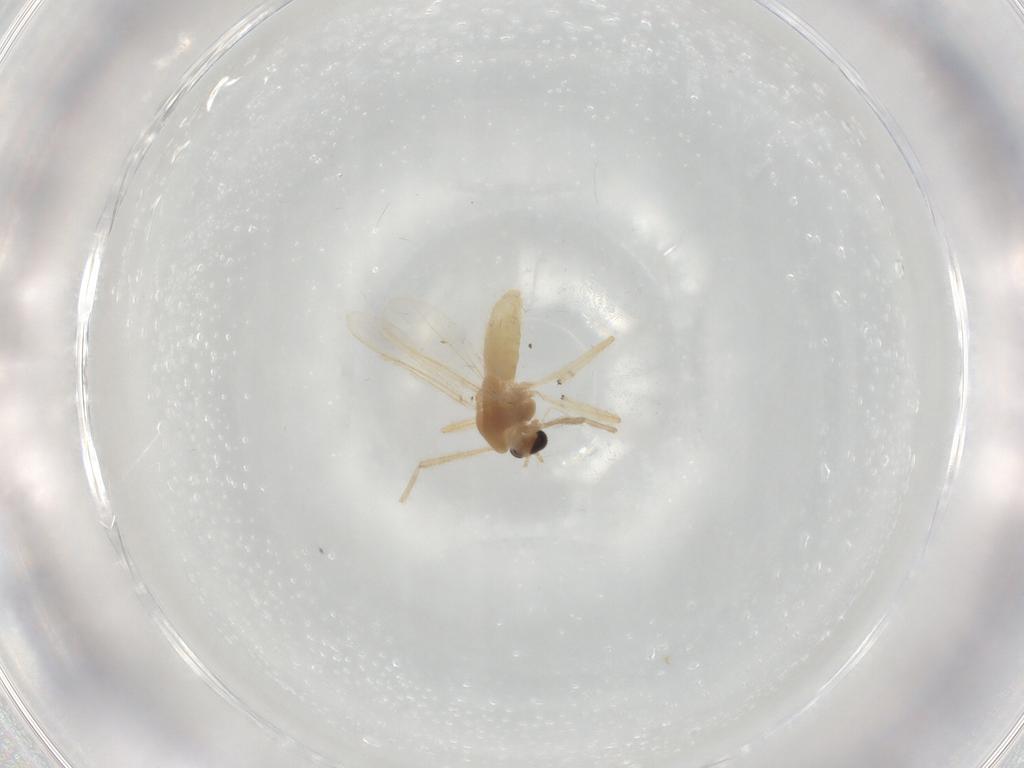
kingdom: Animalia
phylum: Arthropoda
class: Insecta
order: Diptera
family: Chironomidae
